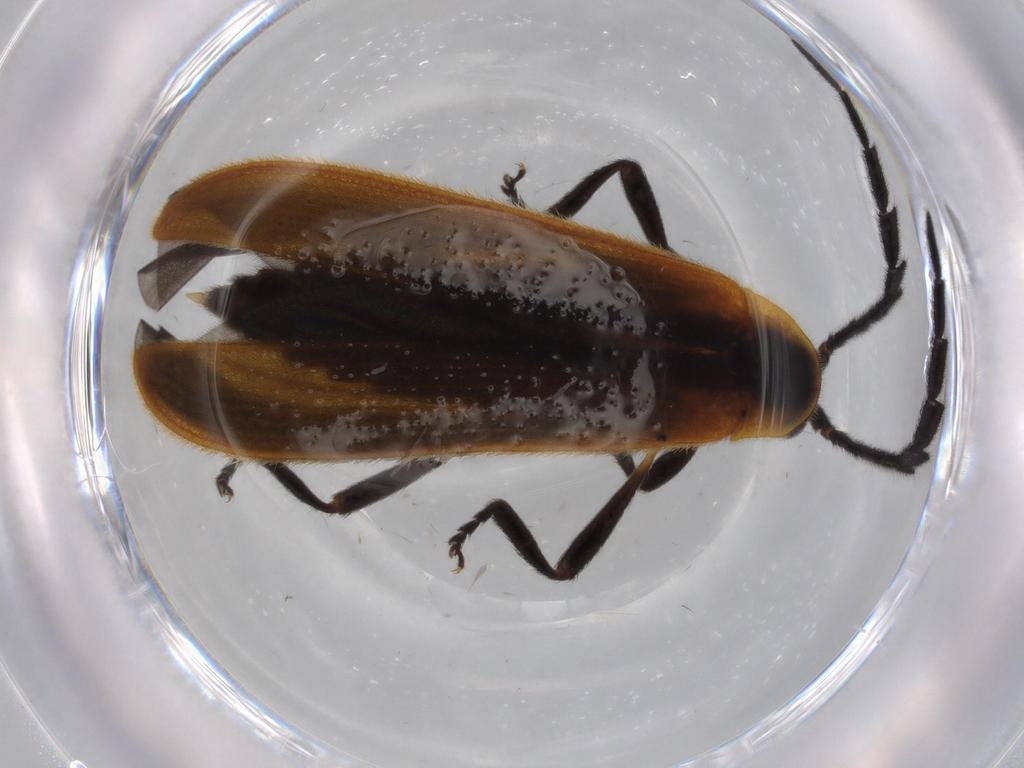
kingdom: Animalia
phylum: Arthropoda
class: Insecta
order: Coleoptera
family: Lycidae
